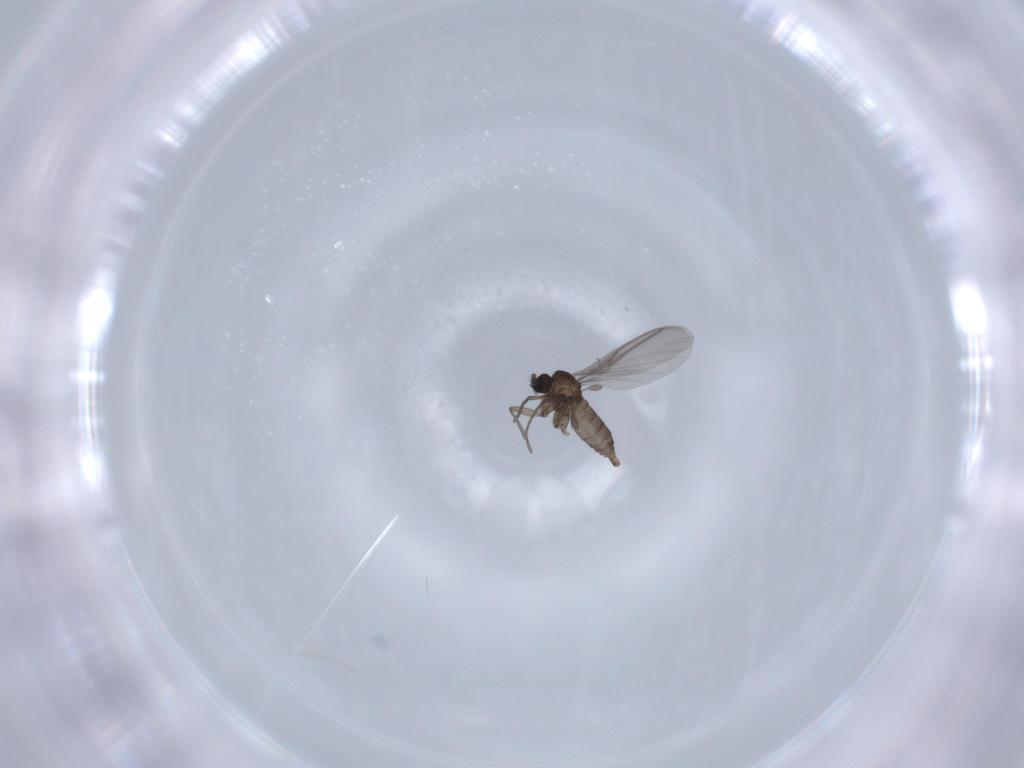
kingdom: Animalia
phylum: Arthropoda
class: Insecta
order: Diptera
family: Sciaridae
